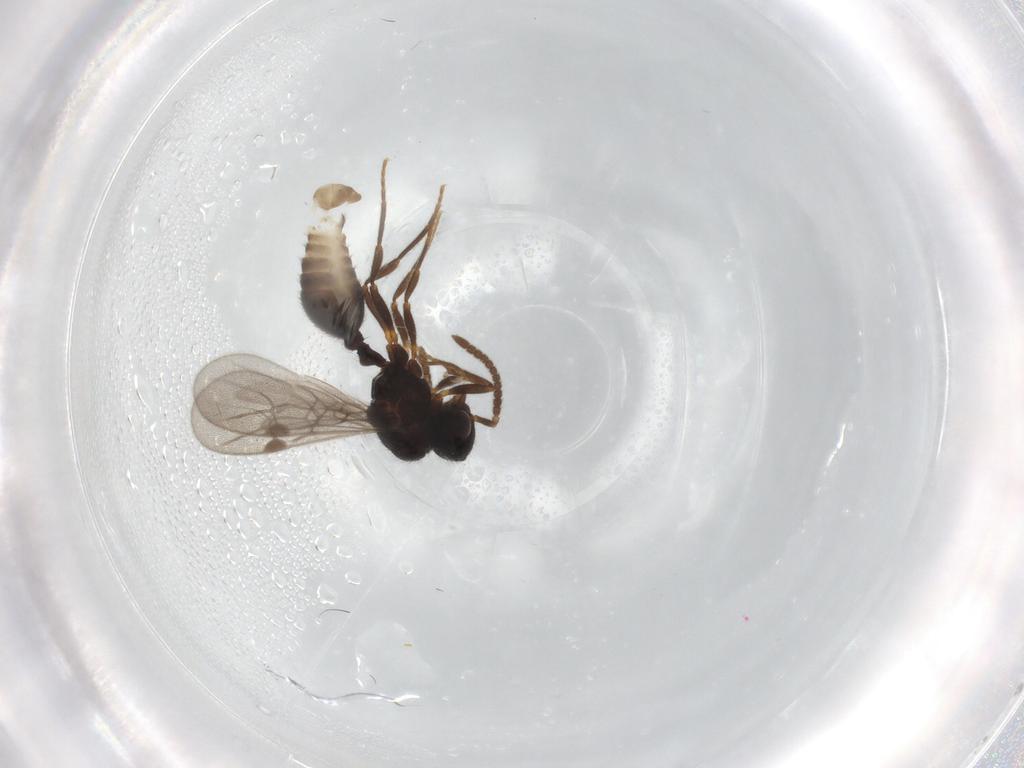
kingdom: Animalia
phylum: Arthropoda
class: Insecta
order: Hymenoptera
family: Formicidae
